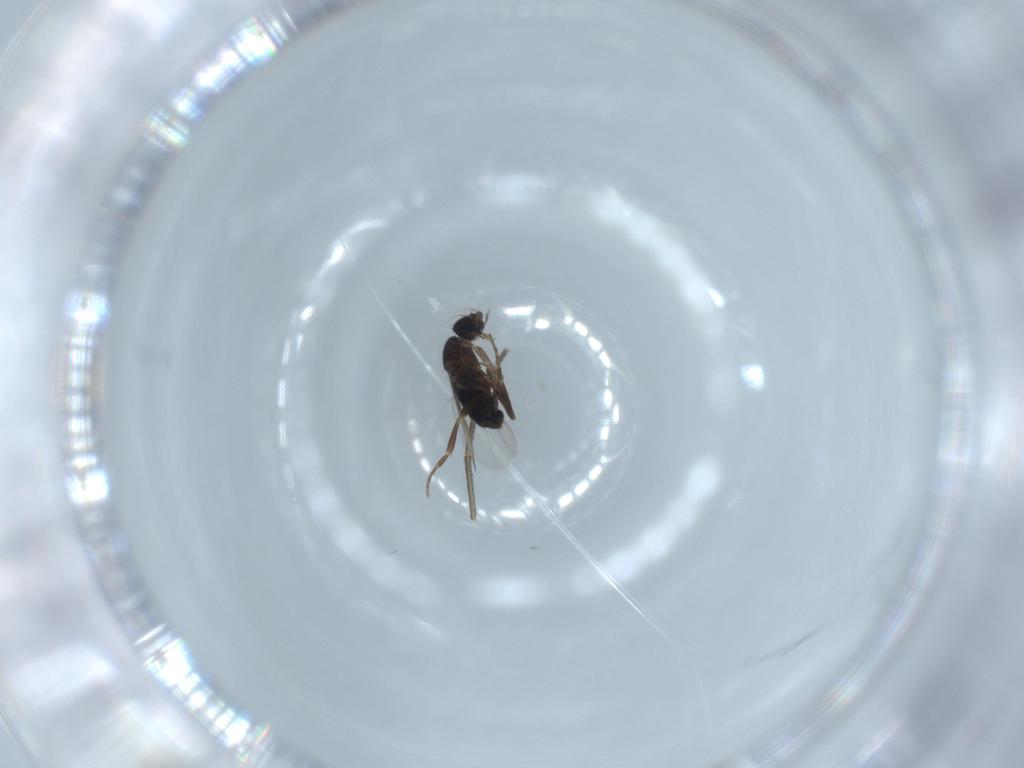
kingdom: Animalia
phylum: Arthropoda
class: Insecta
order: Diptera
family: Phoridae
